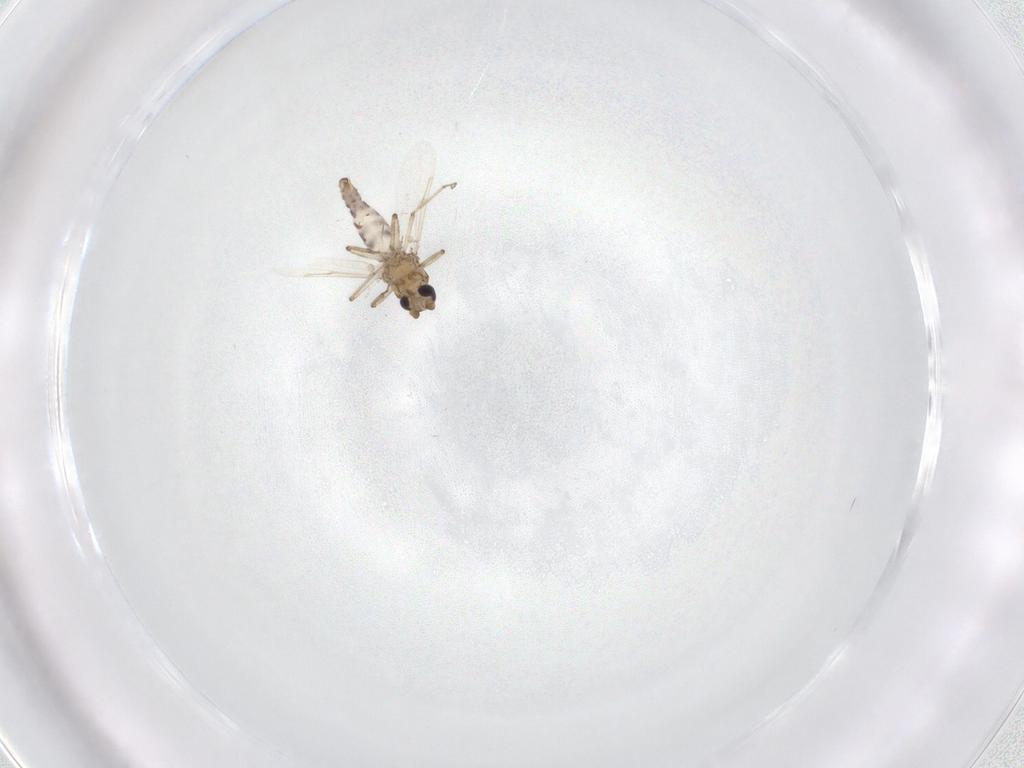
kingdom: Animalia
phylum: Arthropoda
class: Insecta
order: Diptera
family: Ceratopogonidae
